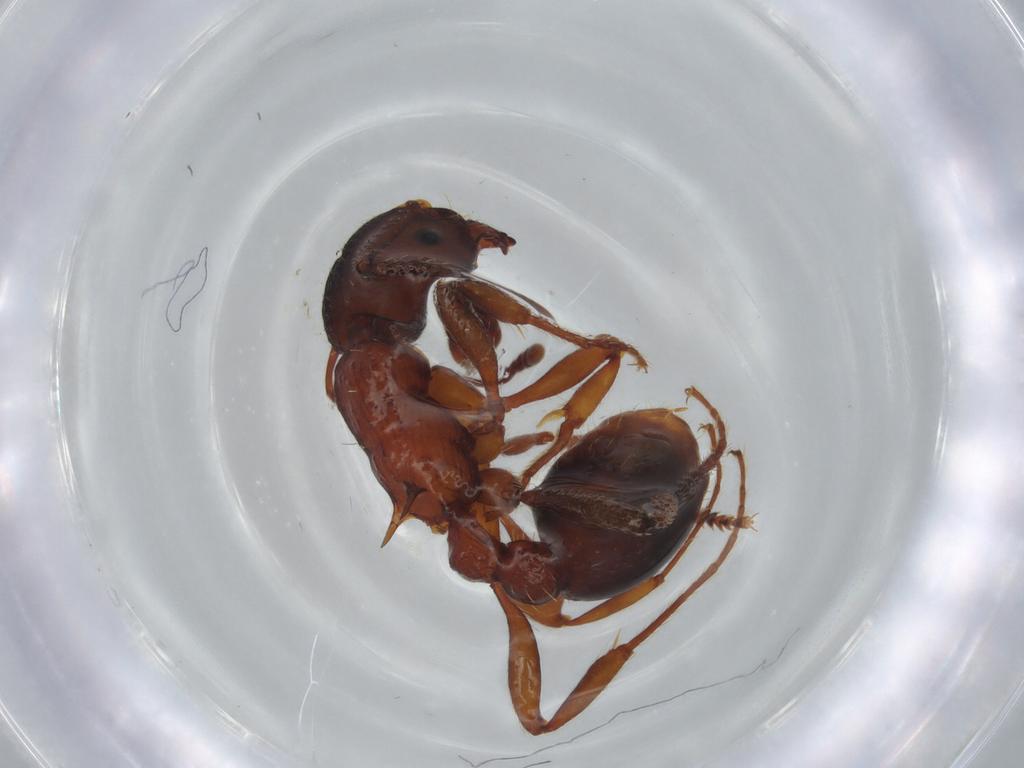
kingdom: Animalia
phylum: Arthropoda
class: Insecta
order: Hymenoptera
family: Formicidae
